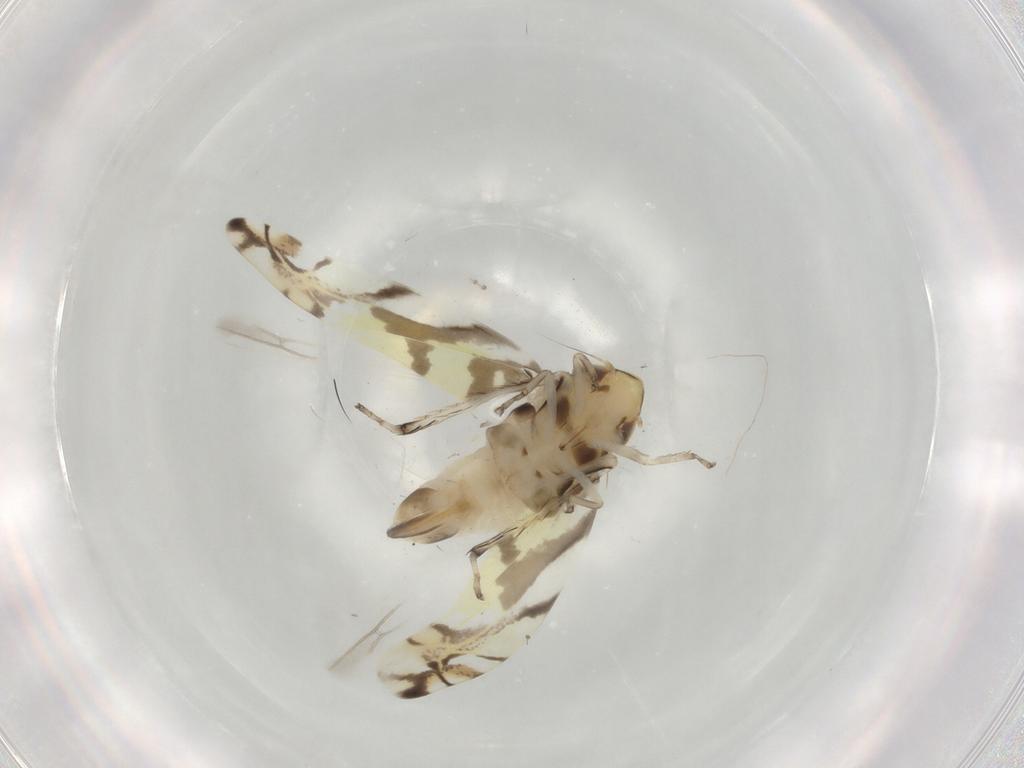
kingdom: Animalia
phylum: Arthropoda
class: Insecta
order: Hemiptera
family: Cicadellidae
